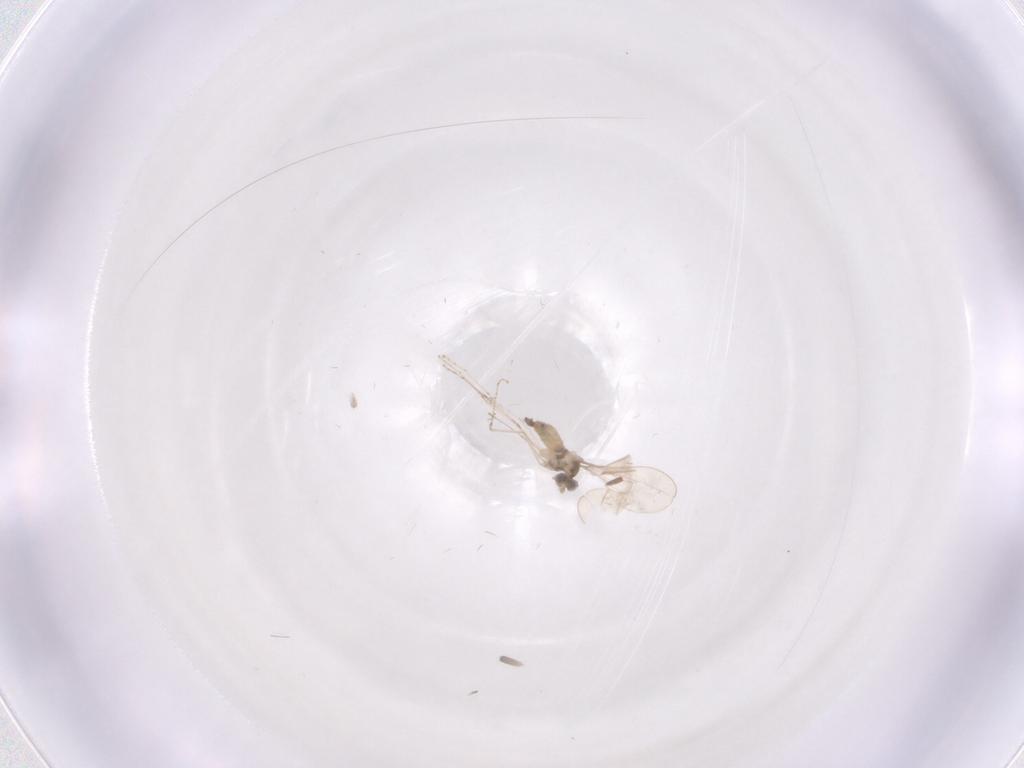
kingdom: Animalia
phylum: Arthropoda
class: Insecta
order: Diptera
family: Cecidomyiidae
